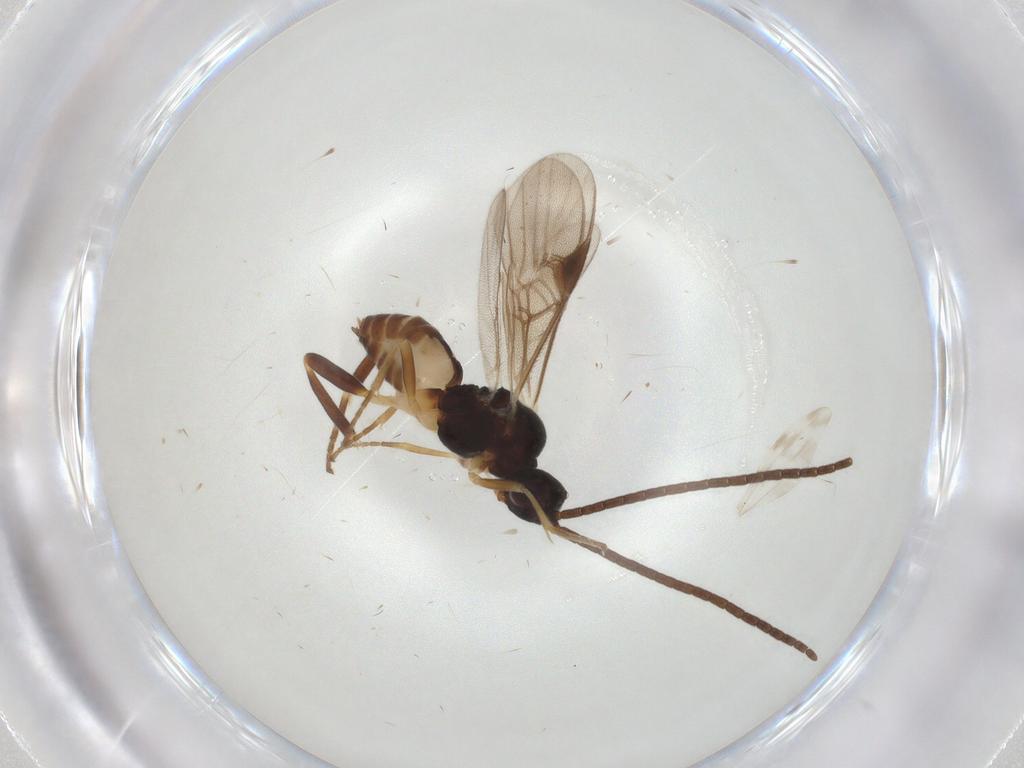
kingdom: Animalia
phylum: Arthropoda
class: Insecta
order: Hymenoptera
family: Braconidae
